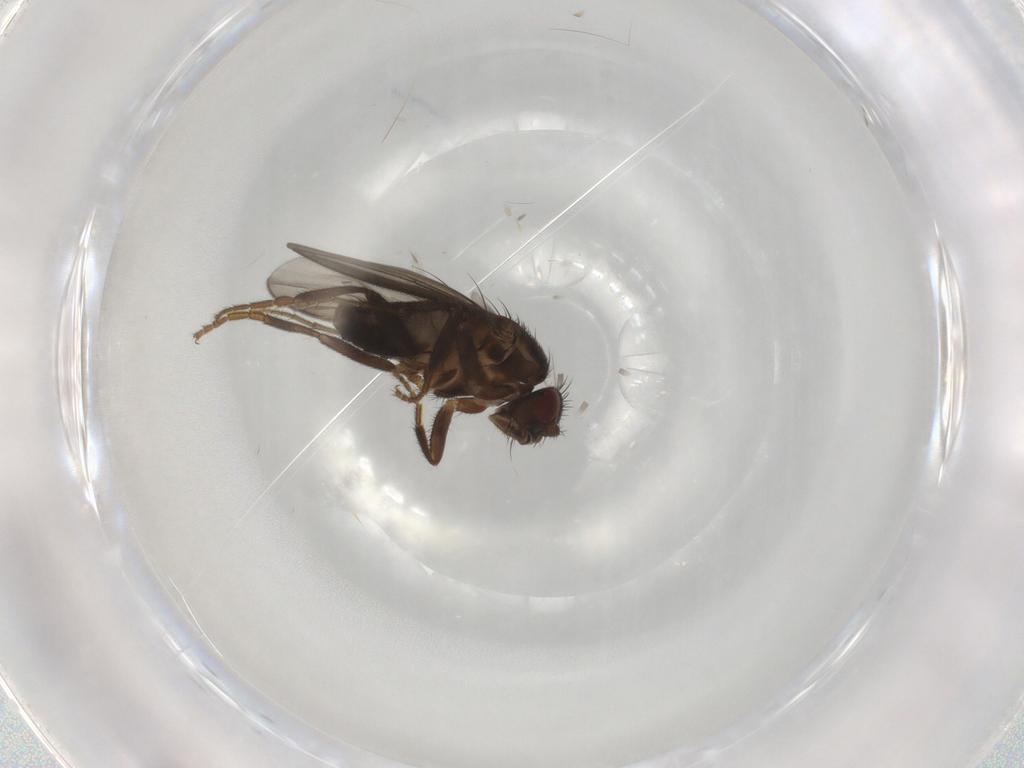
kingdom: Animalia
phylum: Arthropoda
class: Insecta
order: Diptera
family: Sphaeroceridae
